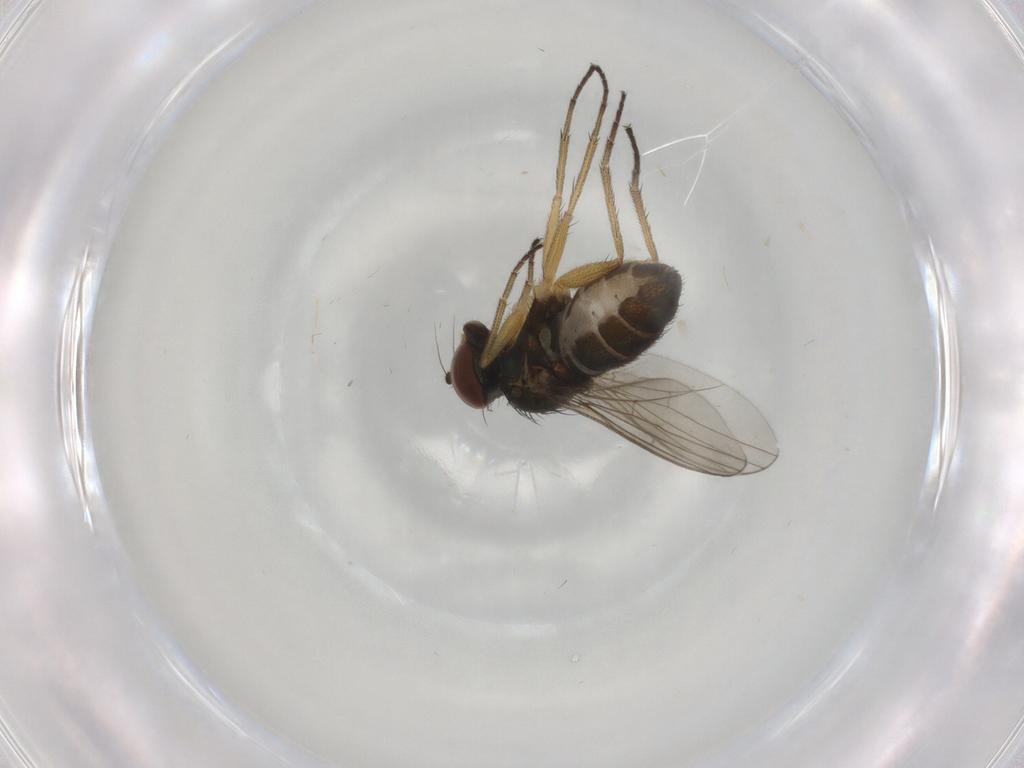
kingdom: Animalia
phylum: Arthropoda
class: Insecta
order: Diptera
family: Dolichopodidae
